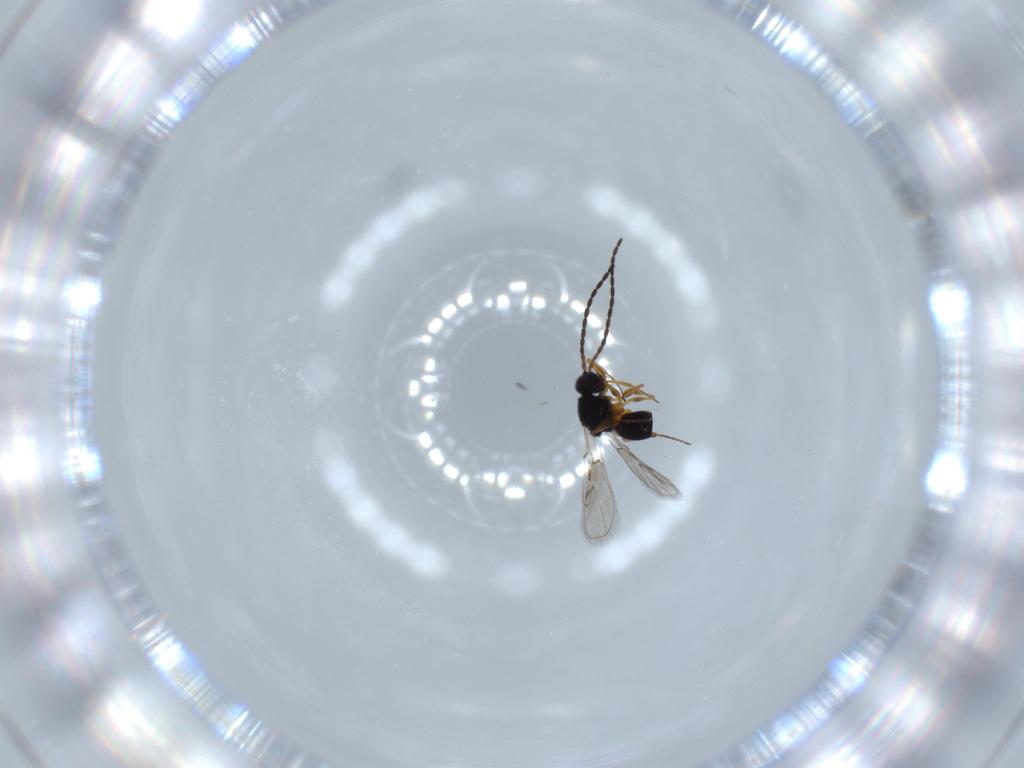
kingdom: Animalia
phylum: Arthropoda
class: Insecta
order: Hymenoptera
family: Figitidae
